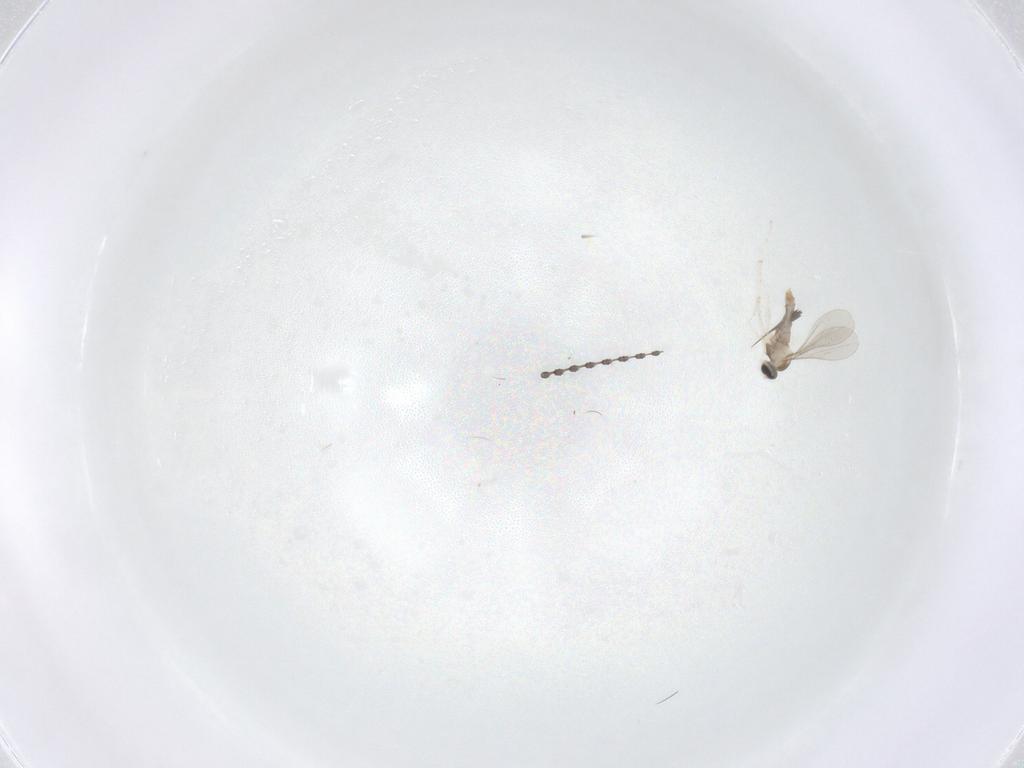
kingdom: Animalia
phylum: Arthropoda
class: Insecta
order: Diptera
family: Cecidomyiidae
